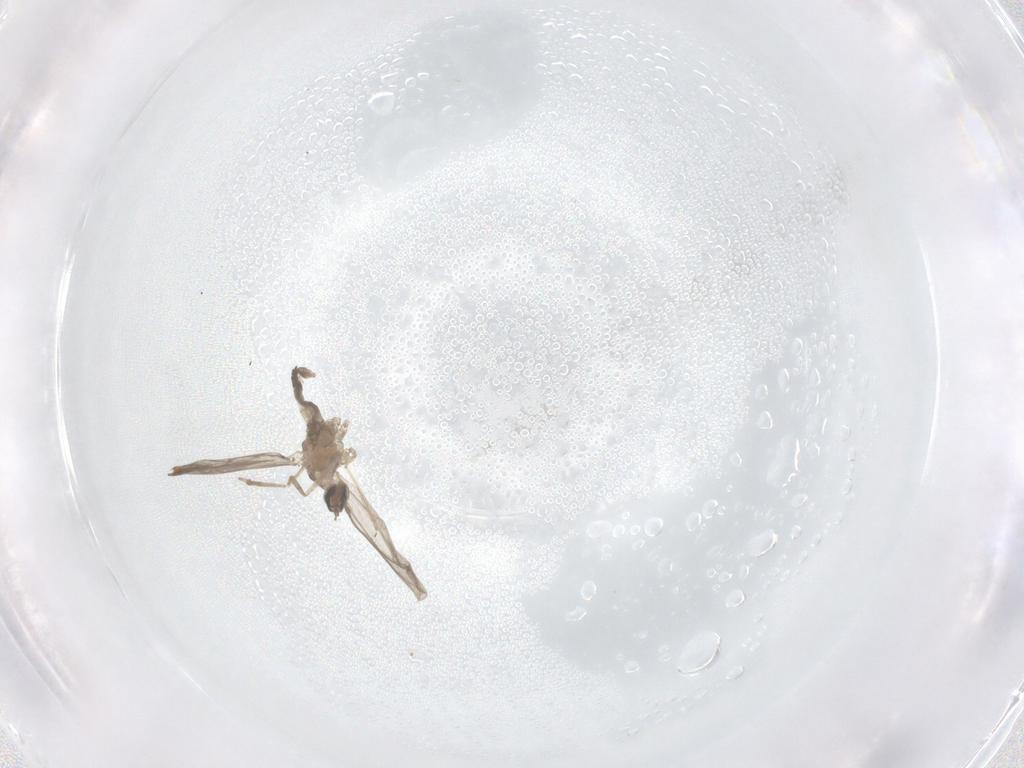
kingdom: Animalia
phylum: Arthropoda
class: Insecta
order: Diptera
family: Cecidomyiidae
